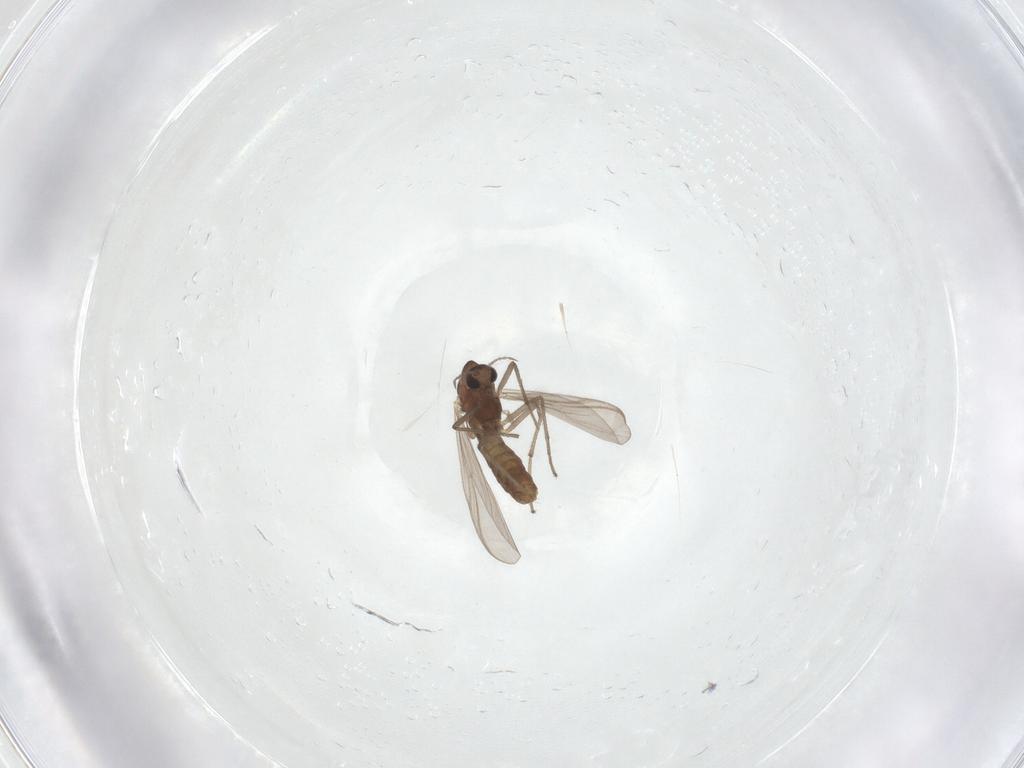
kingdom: Animalia
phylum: Arthropoda
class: Insecta
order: Diptera
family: Chironomidae
